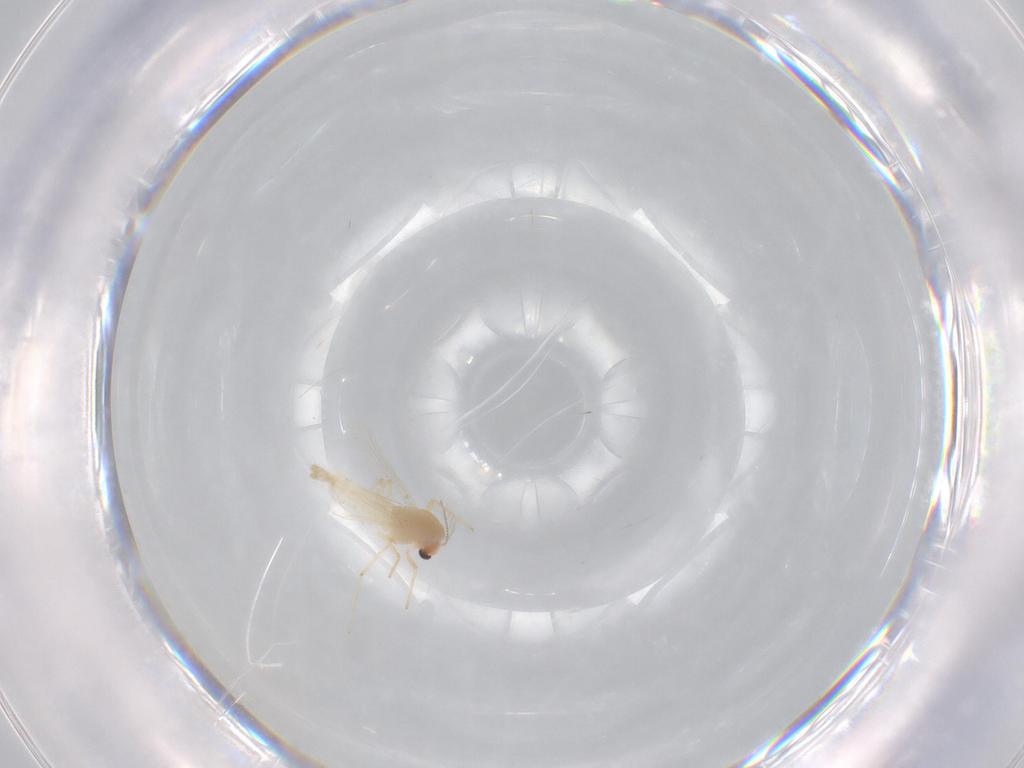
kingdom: Animalia
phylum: Arthropoda
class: Insecta
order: Diptera
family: Chironomidae
